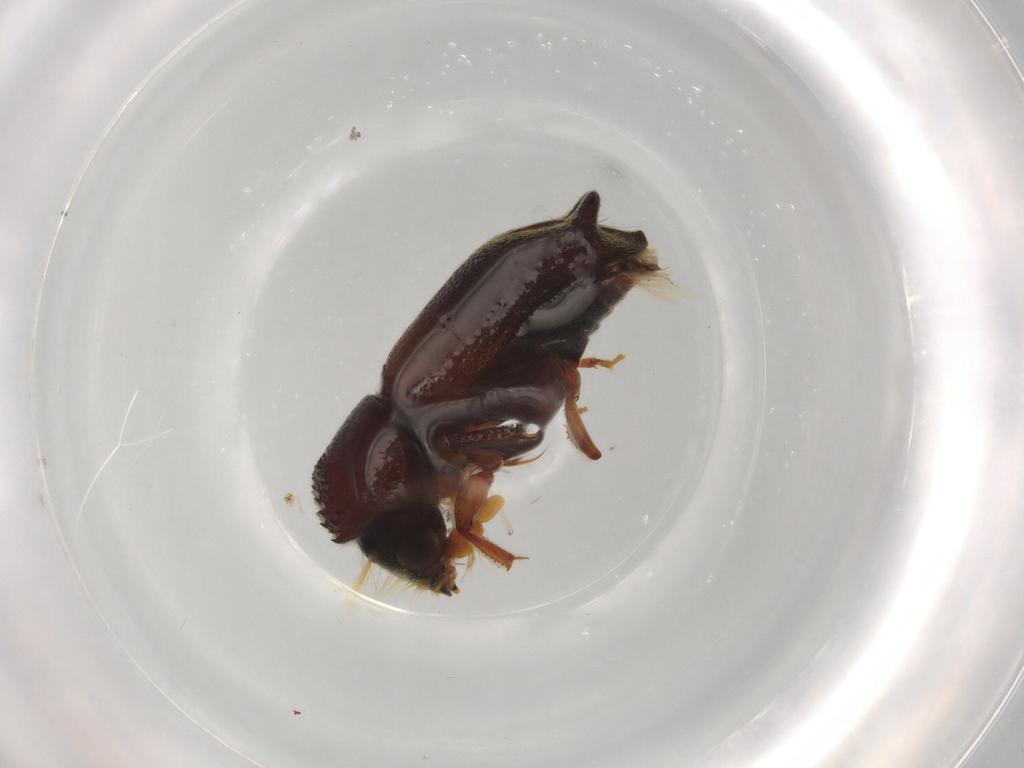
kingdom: Animalia
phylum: Arthropoda
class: Insecta
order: Coleoptera
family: Bostrichidae
